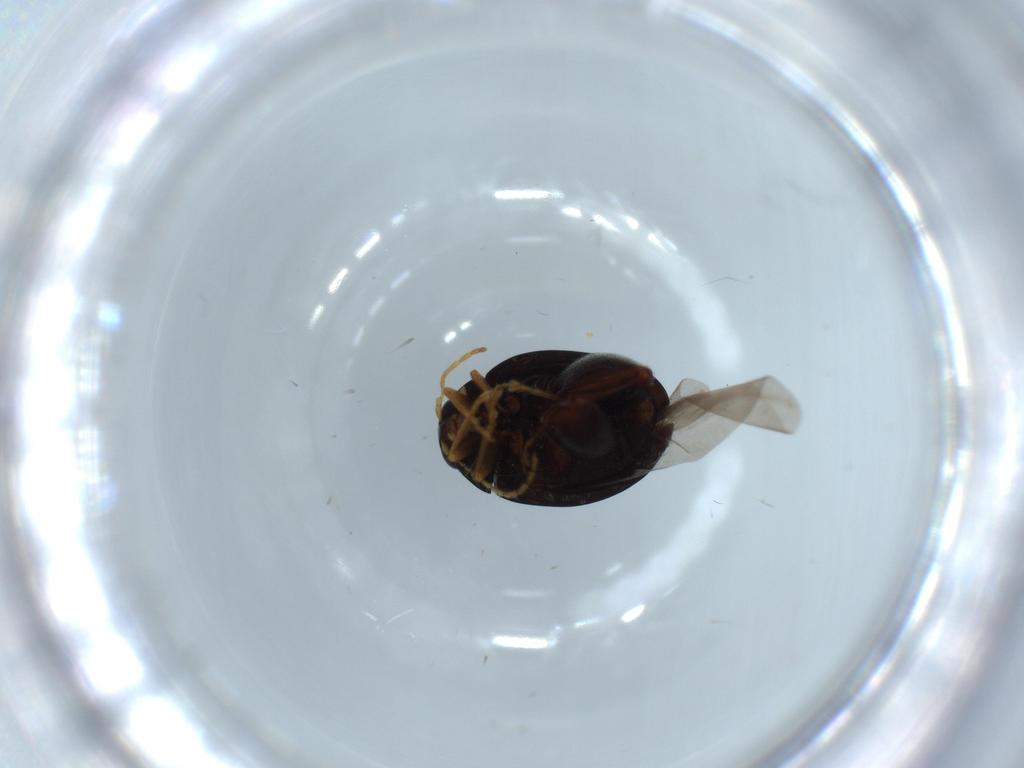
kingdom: Animalia
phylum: Arthropoda
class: Insecta
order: Coleoptera
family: Chrysomelidae
